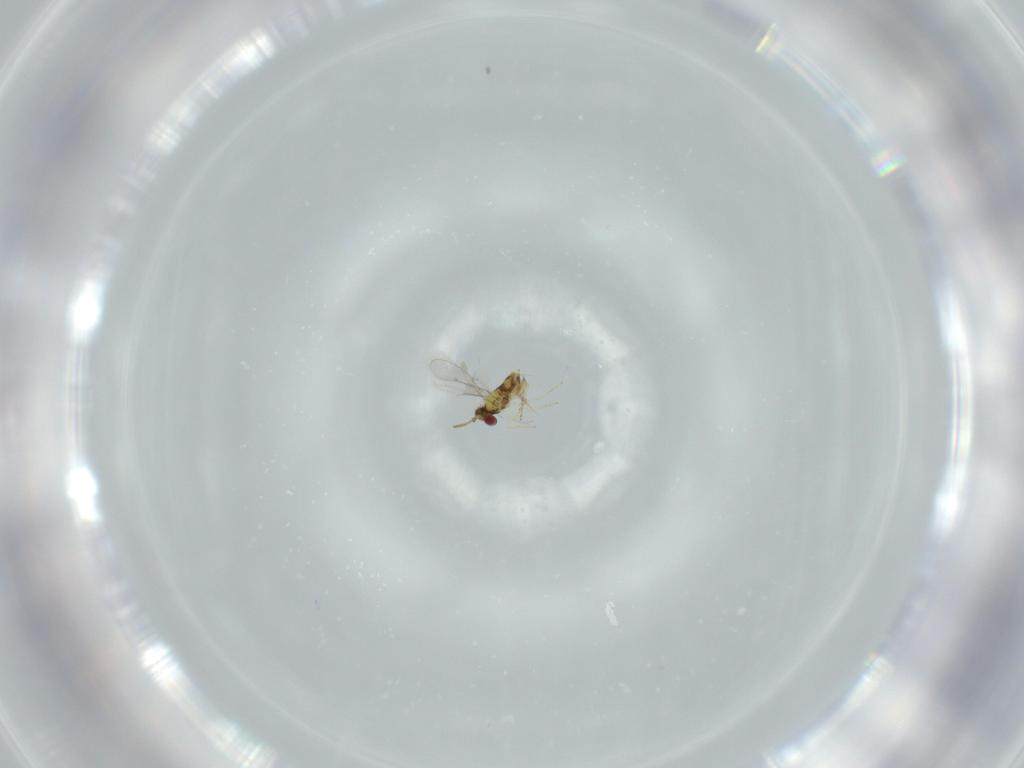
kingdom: Animalia
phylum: Arthropoda
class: Insecta
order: Hymenoptera
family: Aphelinidae
